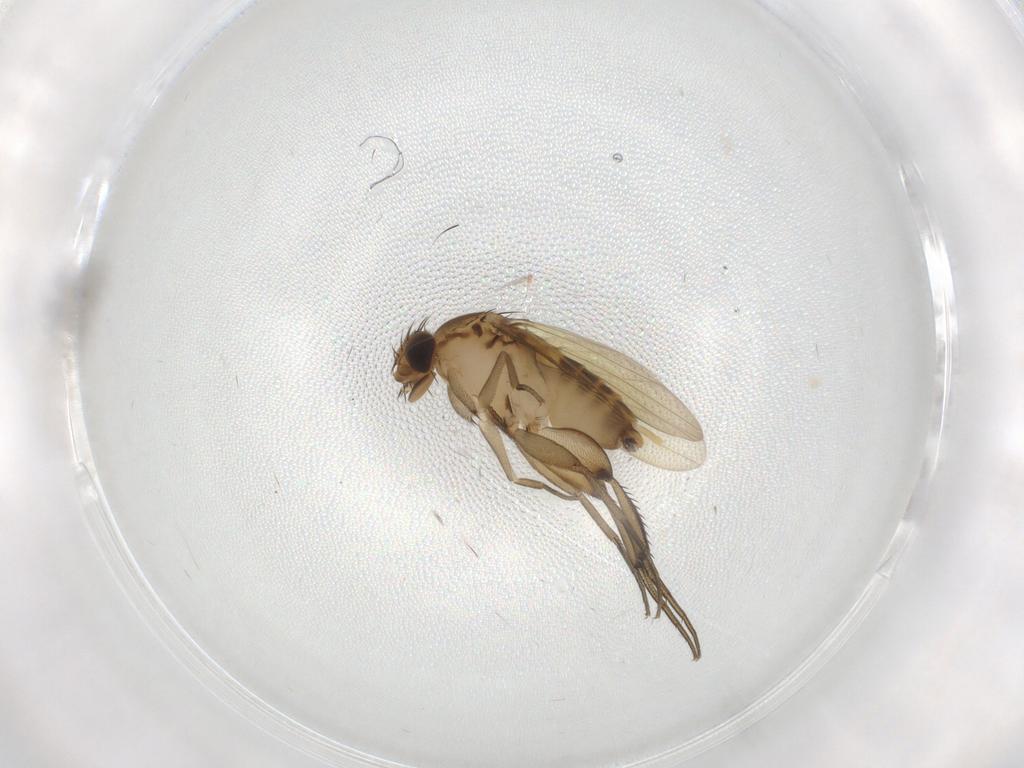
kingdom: Animalia
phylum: Arthropoda
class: Insecta
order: Diptera
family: Phoridae
